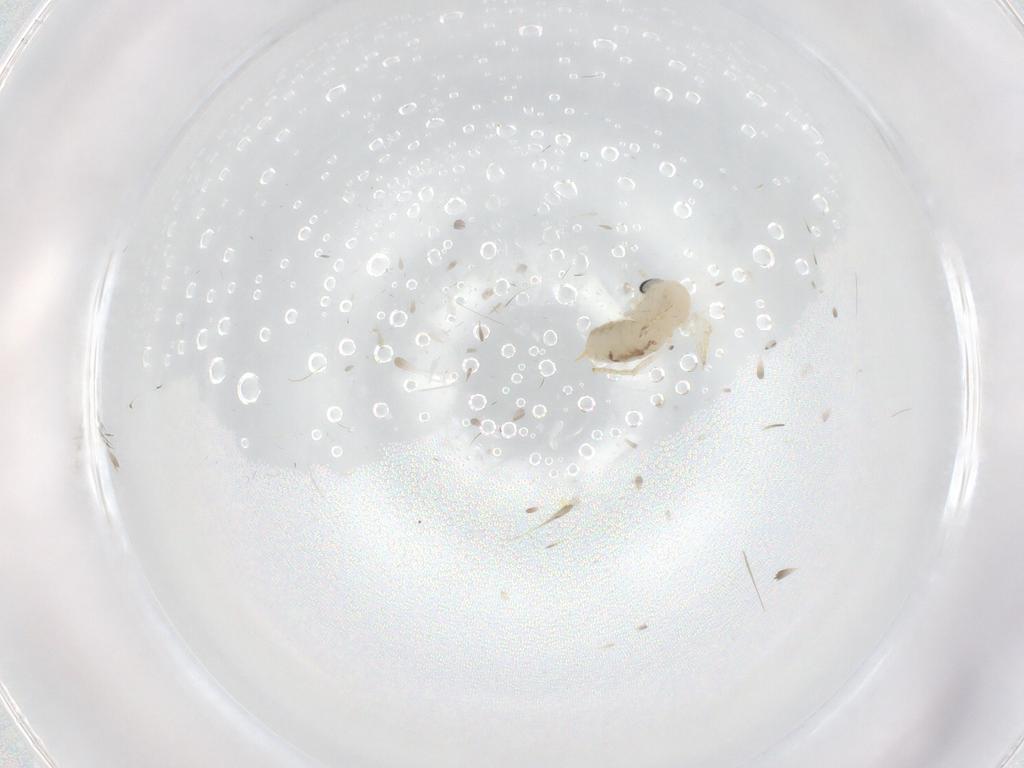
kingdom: Animalia
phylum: Arthropoda
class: Insecta
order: Diptera
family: Psychodidae
